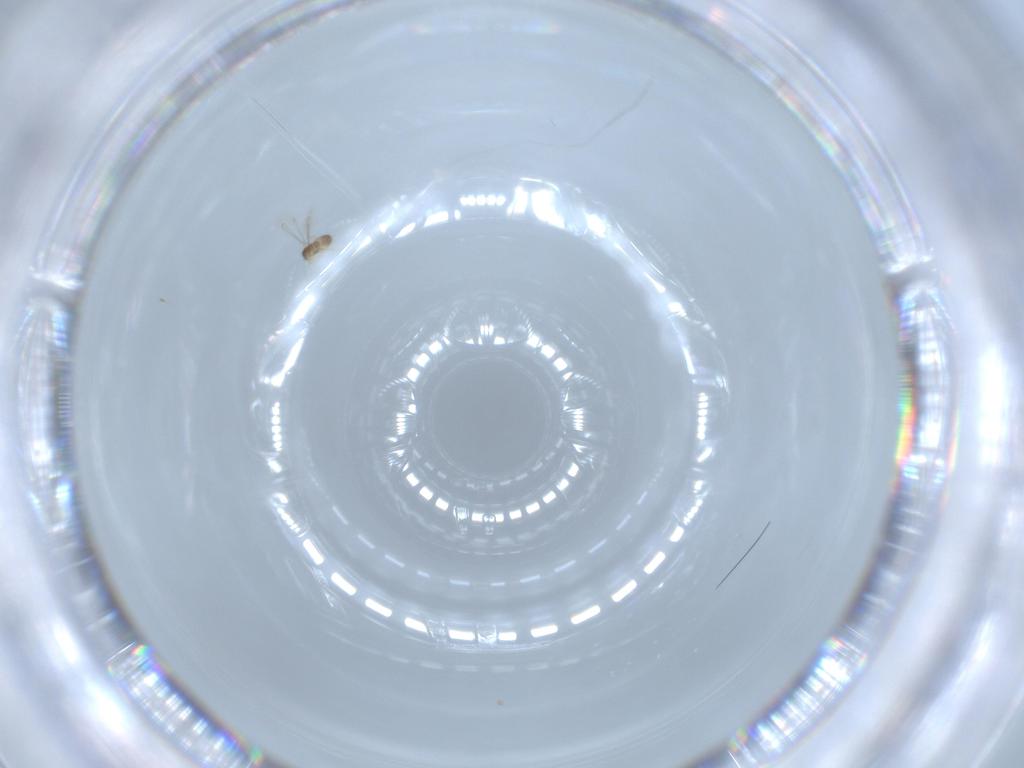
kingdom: Animalia
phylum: Arthropoda
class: Insecta
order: Hymenoptera
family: Mymaridae
